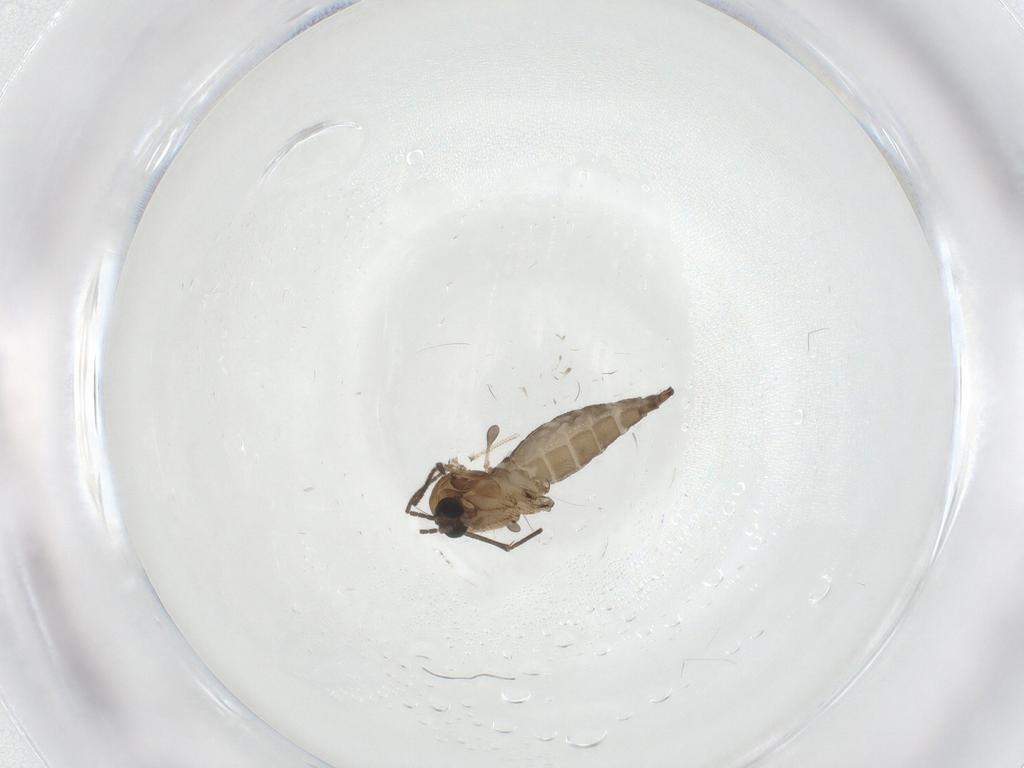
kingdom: Animalia
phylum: Arthropoda
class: Insecta
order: Diptera
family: Sciaridae
